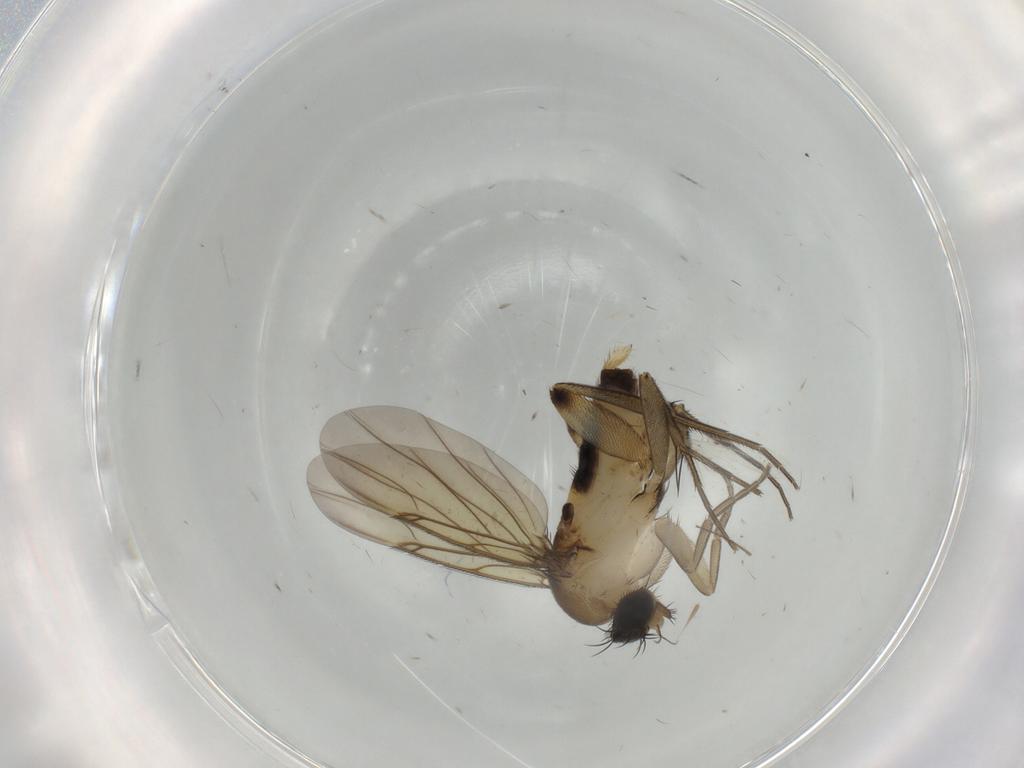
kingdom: Animalia
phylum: Arthropoda
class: Insecta
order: Diptera
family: Phoridae
